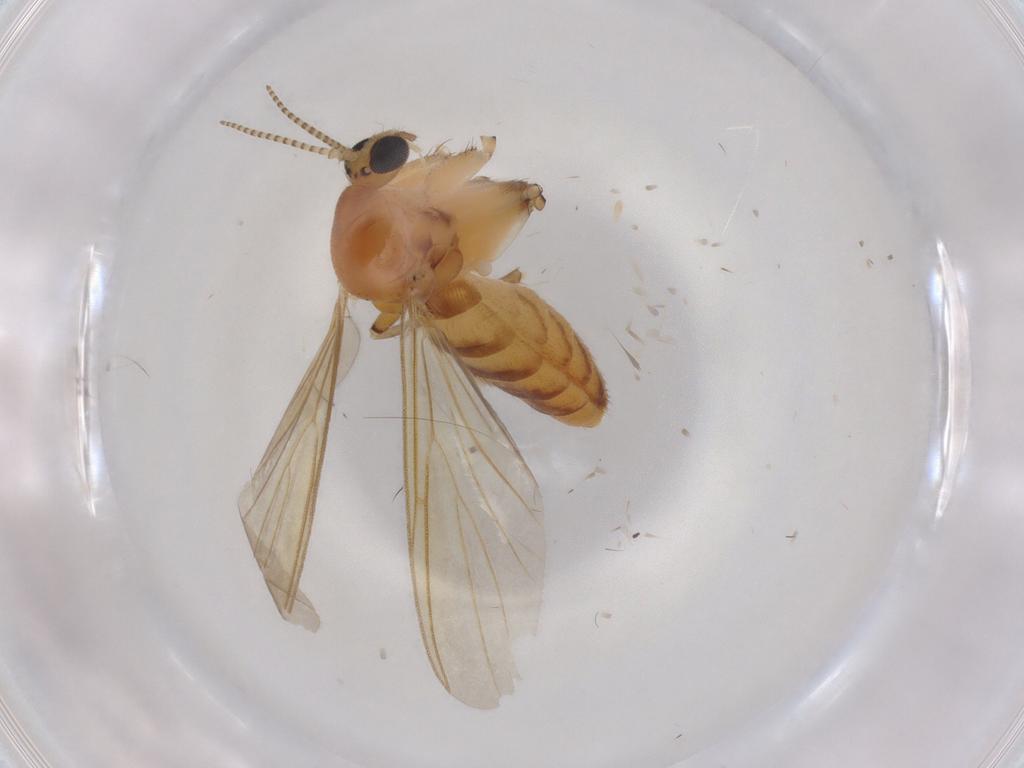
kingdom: Animalia
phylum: Arthropoda
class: Insecta
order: Diptera
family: Mycetophilidae
